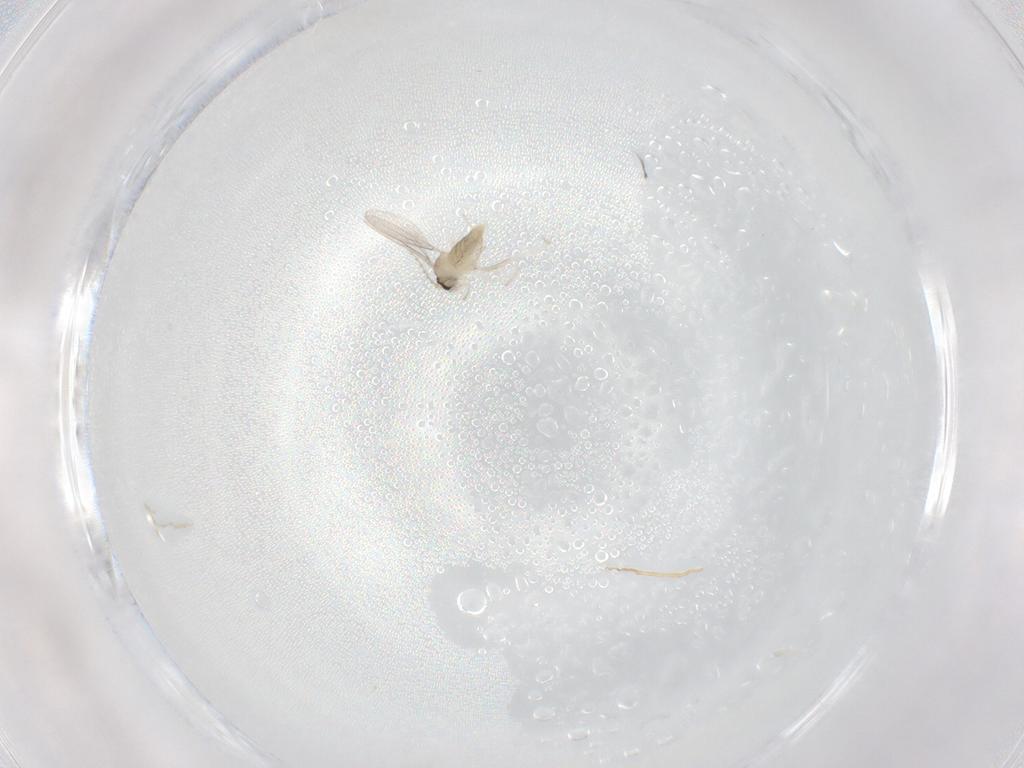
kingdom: Animalia
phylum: Arthropoda
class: Insecta
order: Diptera
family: Cecidomyiidae
